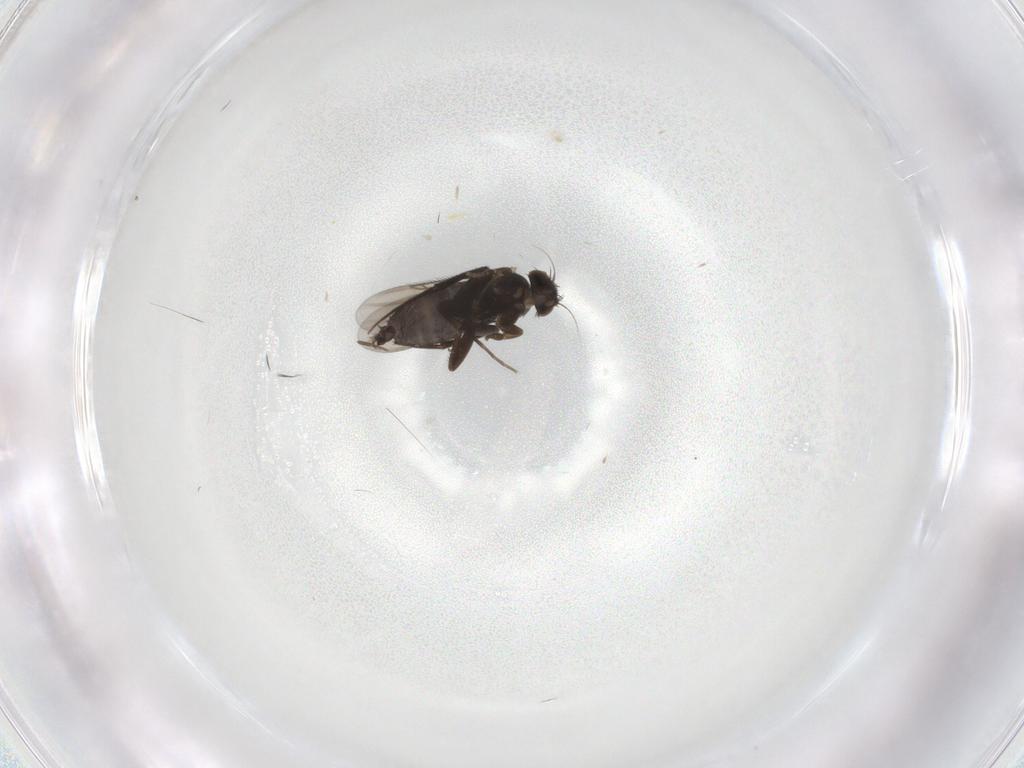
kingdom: Animalia
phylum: Arthropoda
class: Insecta
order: Diptera
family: Psychodidae
